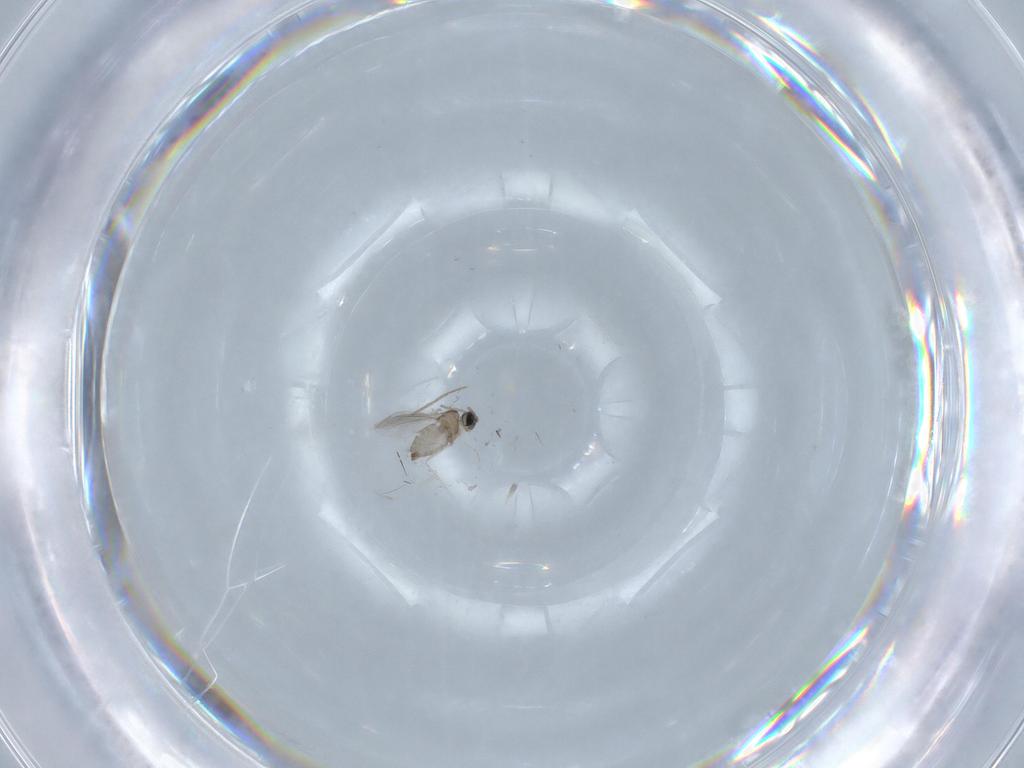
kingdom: Animalia
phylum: Arthropoda
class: Insecta
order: Diptera
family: Cecidomyiidae
